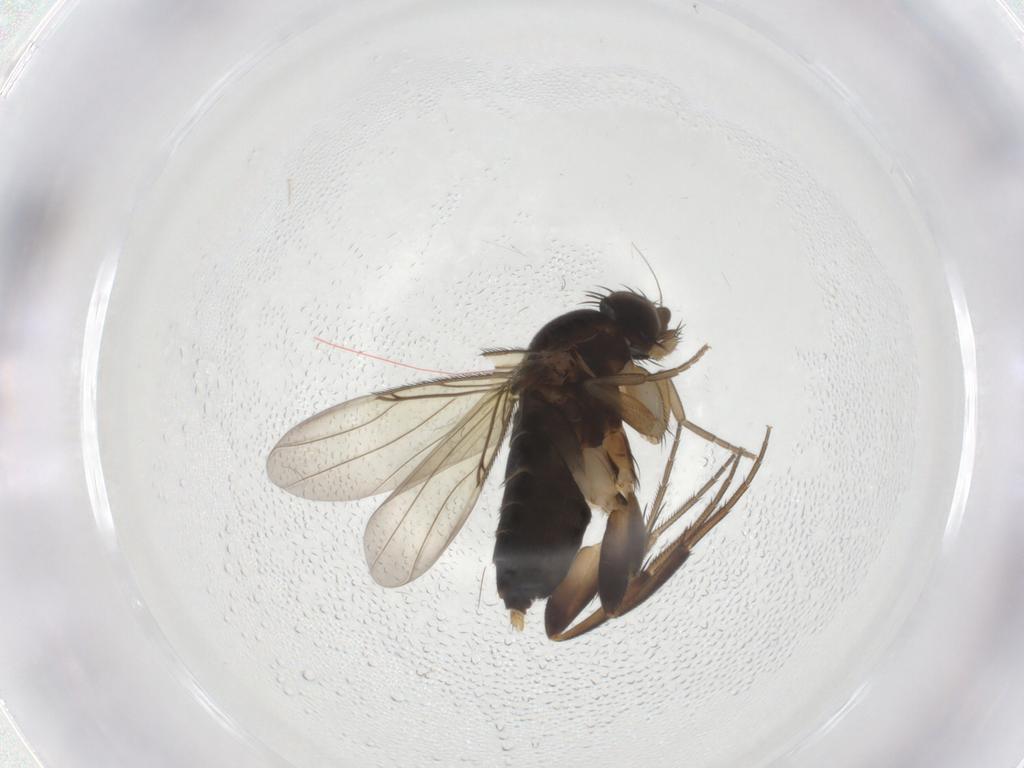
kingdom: Animalia
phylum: Arthropoda
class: Insecta
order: Diptera
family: Phoridae
